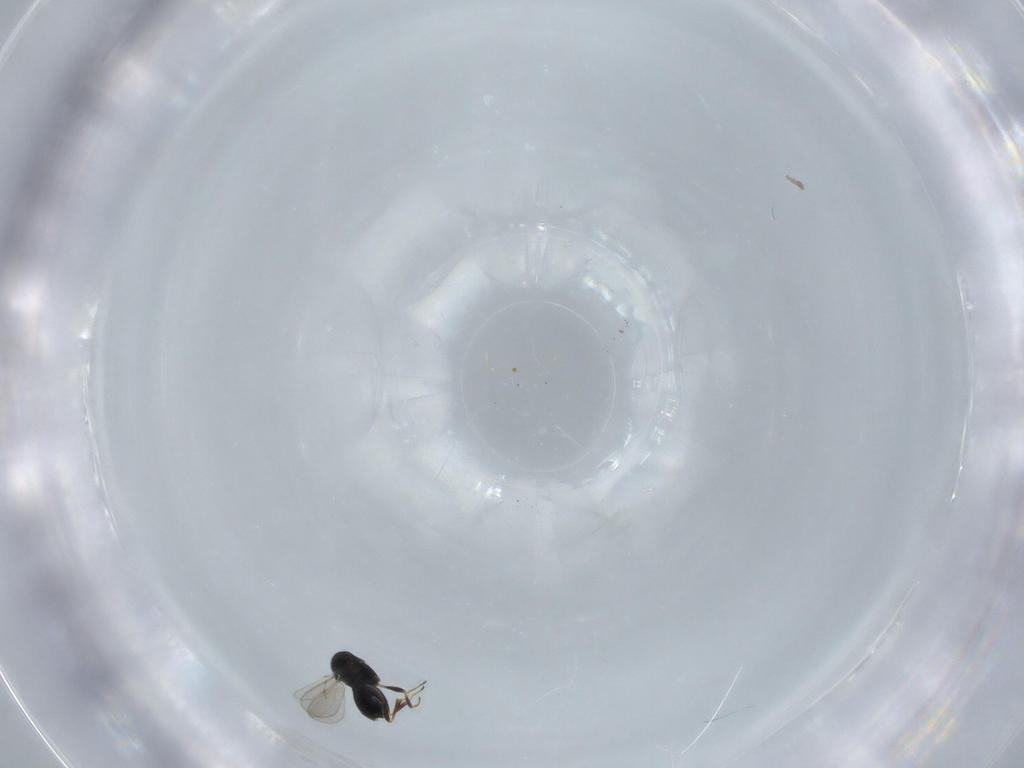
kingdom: Animalia
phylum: Arthropoda
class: Insecta
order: Hymenoptera
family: Scelionidae
